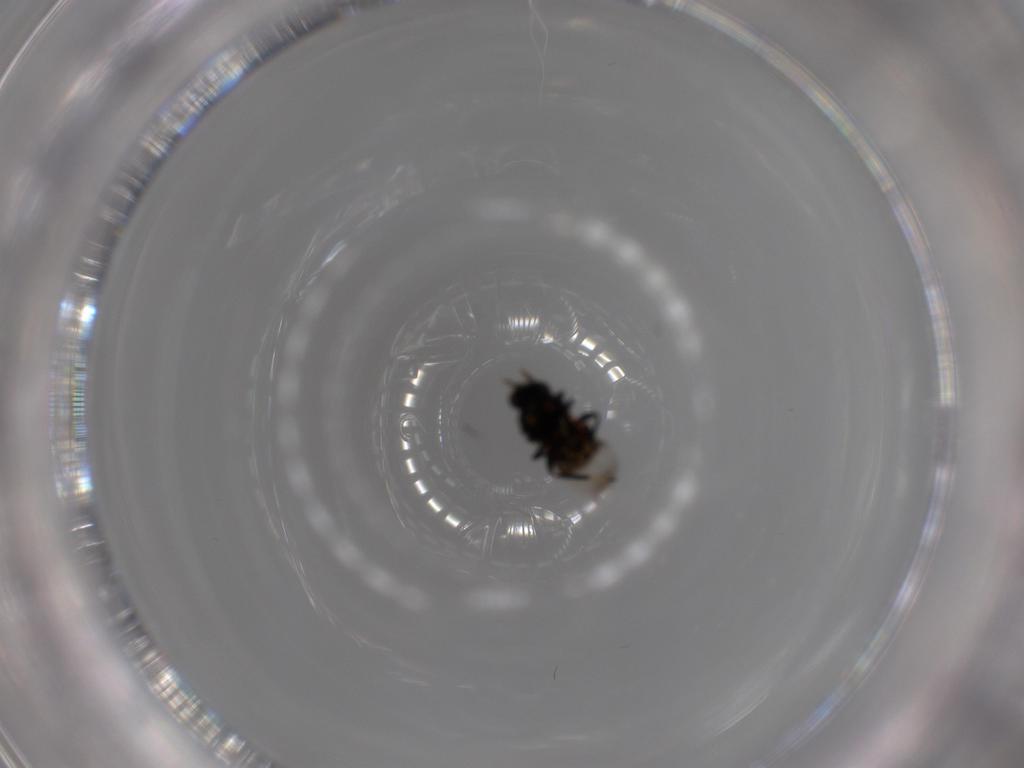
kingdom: Animalia
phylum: Arthropoda
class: Insecta
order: Hymenoptera
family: Eulophidae
